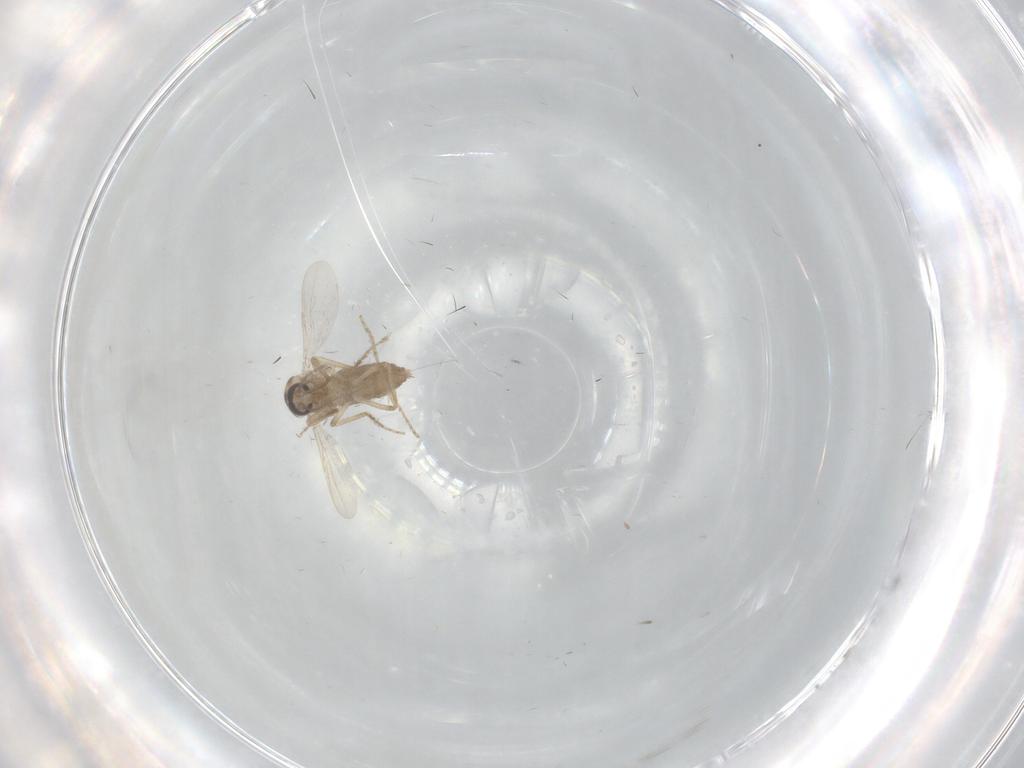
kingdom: Animalia
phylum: Arthropoda
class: Insecta
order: Diptera
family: Ceratopogonidae
